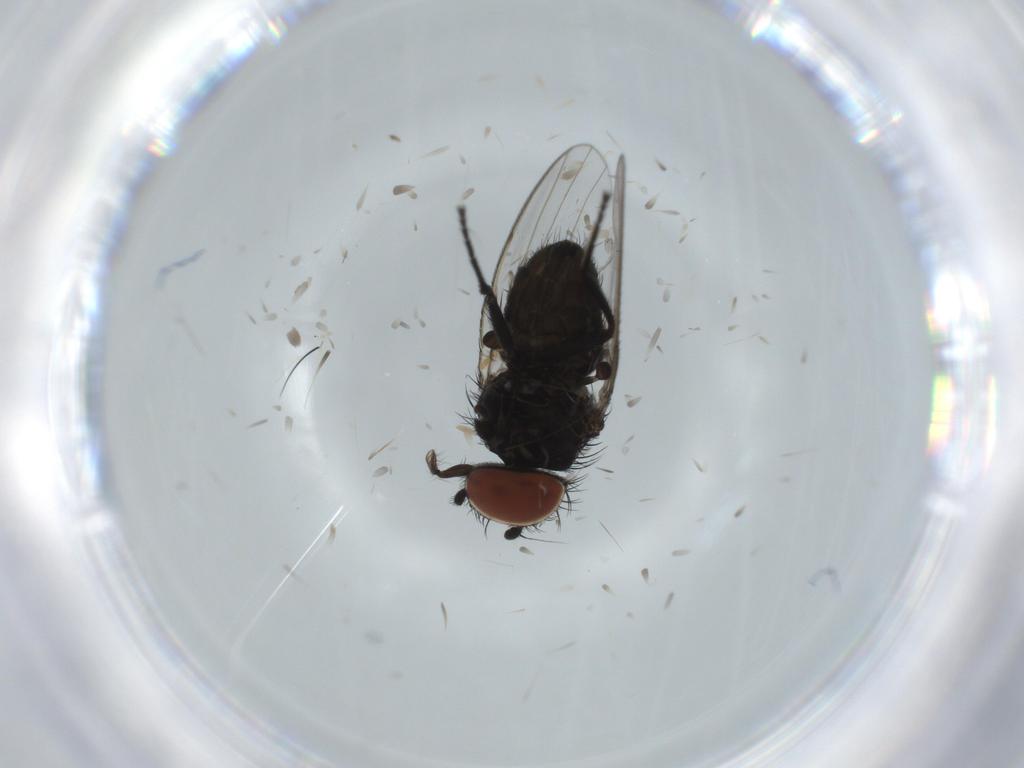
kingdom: Animalia
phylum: Arthropoda
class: Insecta
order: Diptera
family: Milichiidae
